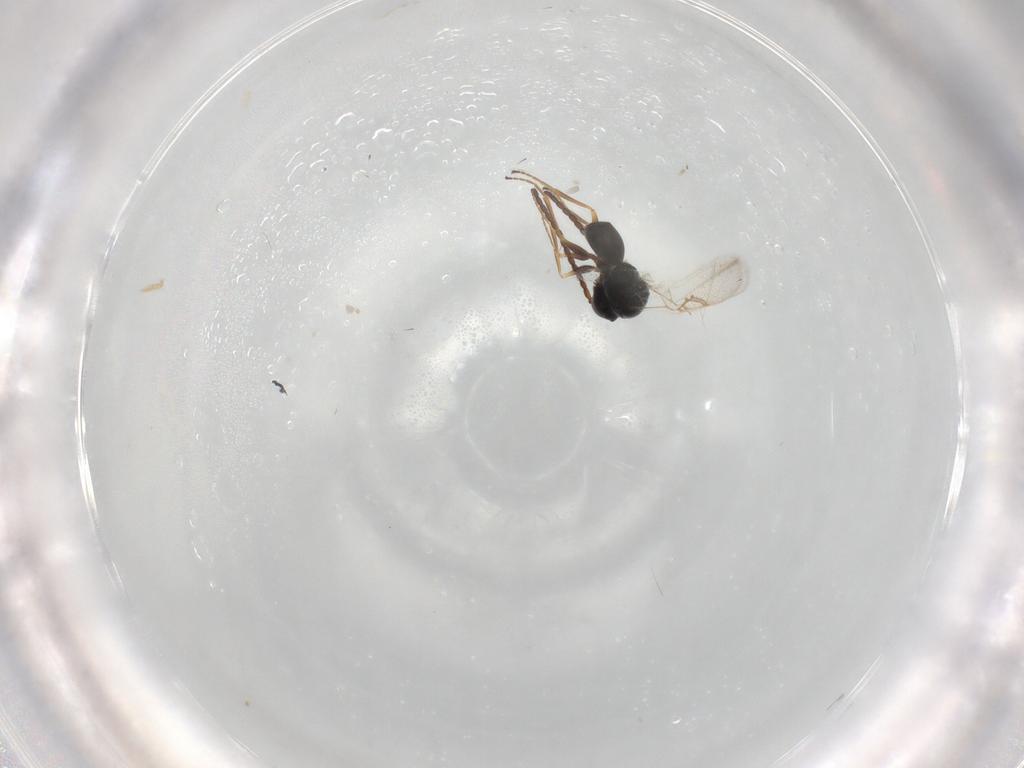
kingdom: Animalia
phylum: Arthropoda
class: Insecta
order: Hymenoptera
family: Figitidae
